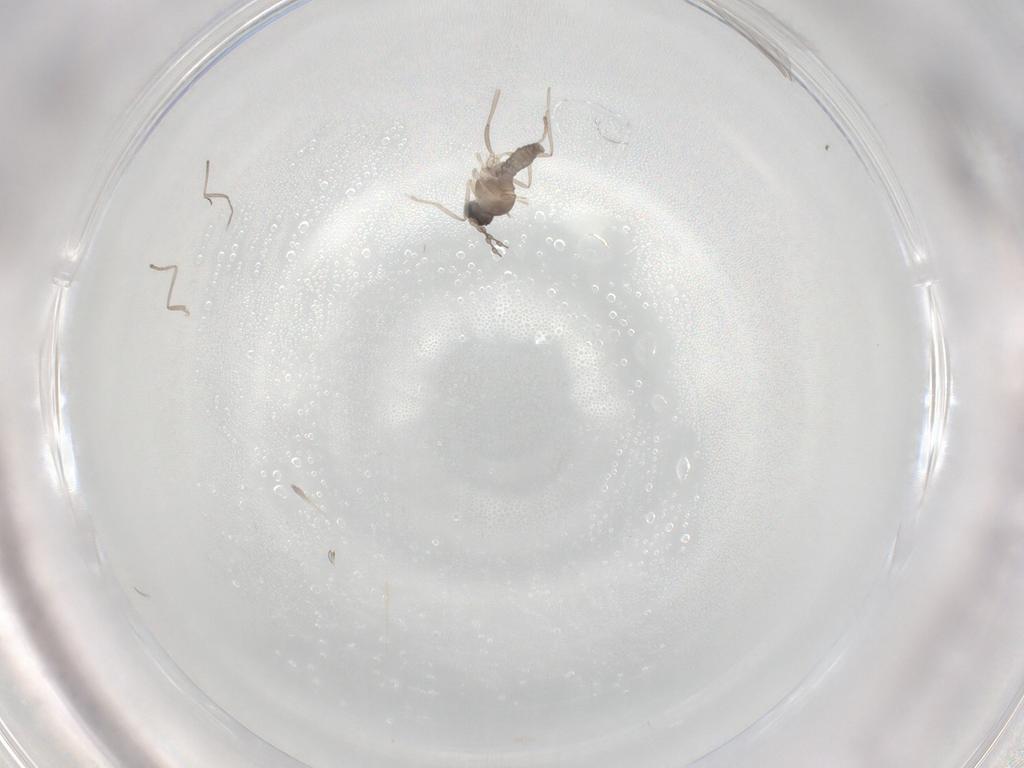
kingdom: Animalia
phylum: Arthropoda
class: Insecta
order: Diptera
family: Cecidomyiidae
